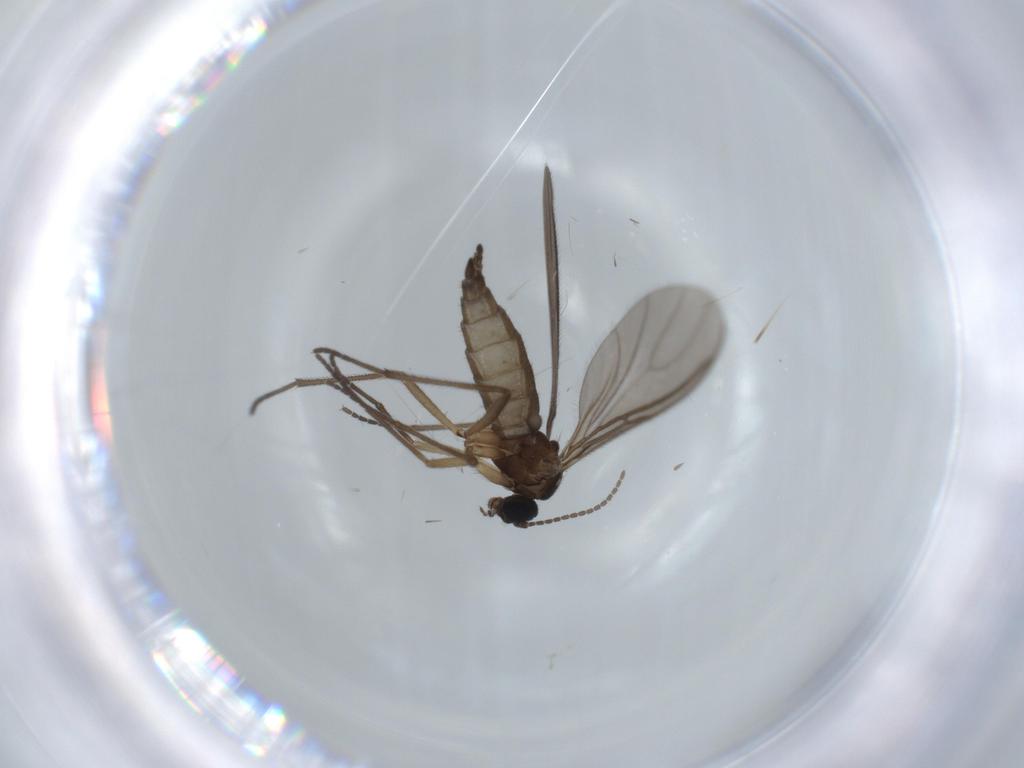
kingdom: Animalia
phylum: Arthropoda
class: Insecta
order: Diptera
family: Sciaridae
